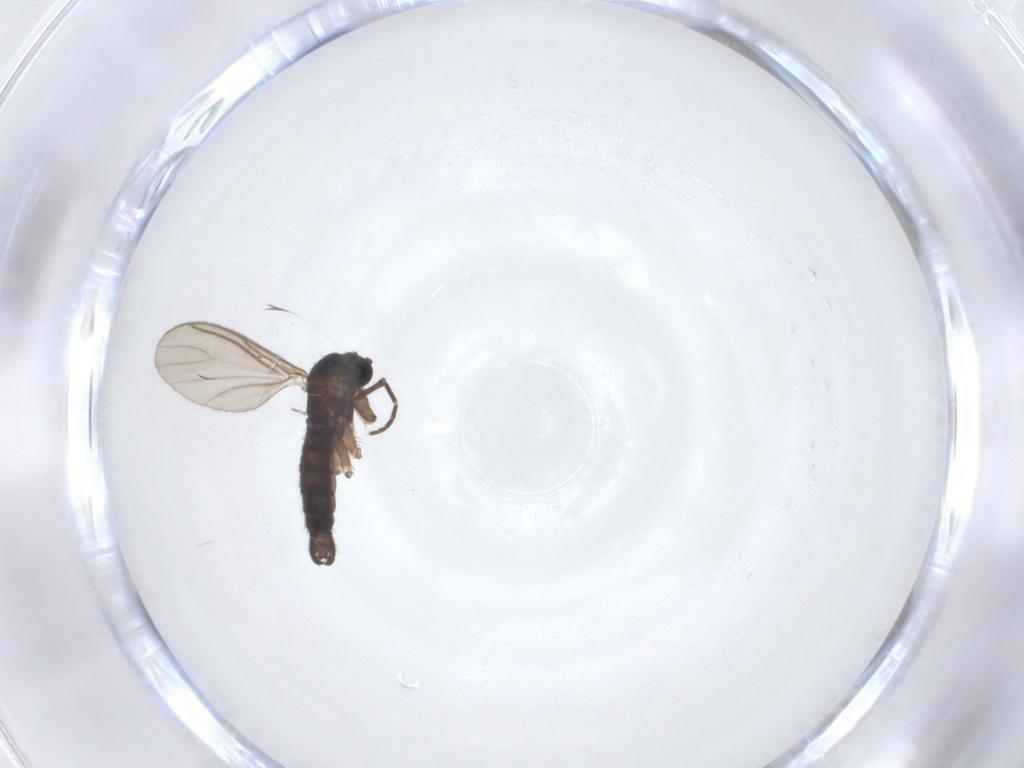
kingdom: Animalia
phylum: Arthropoda
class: Insecta
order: Diptera
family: Sciaridae
